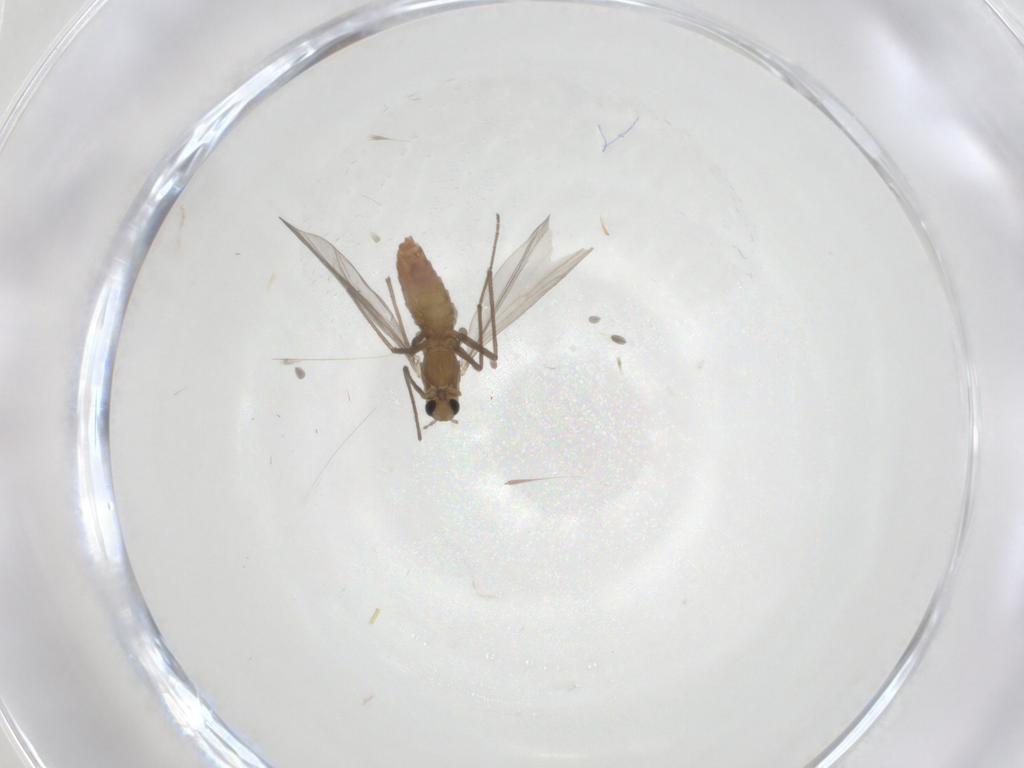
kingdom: Animalia
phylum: Arthropoda
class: Insecta
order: Diptera
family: Chironomidae
